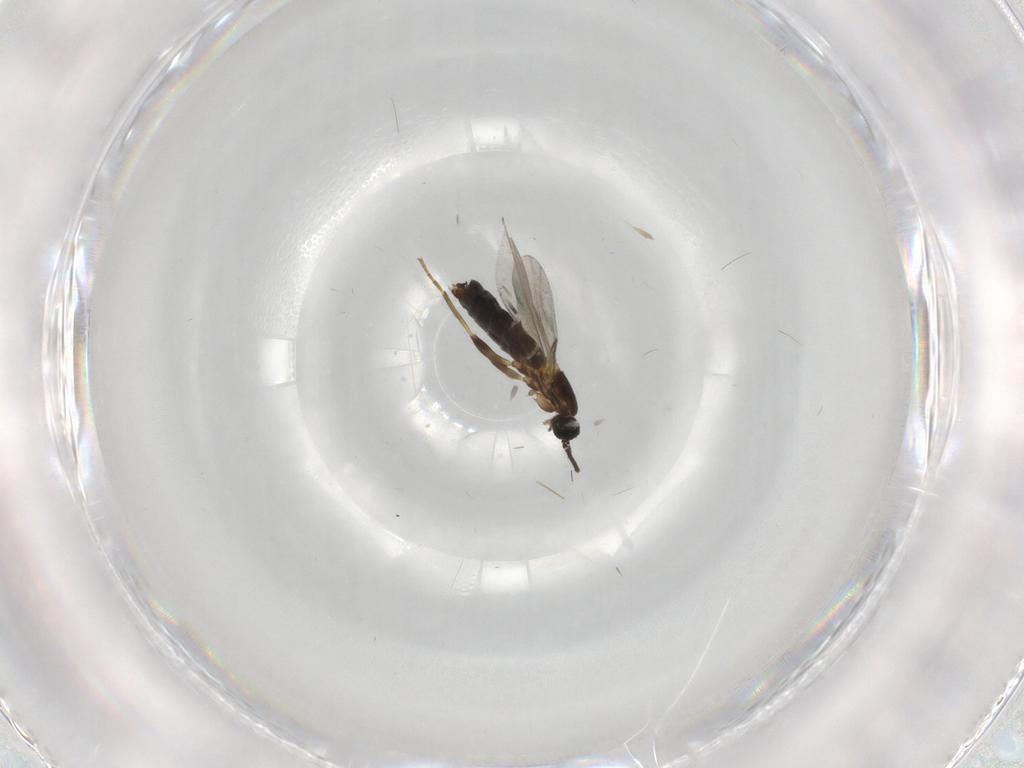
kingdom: Animalia
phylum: Arthropoda
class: Insecta
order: Diptera
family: Scatopsidae
